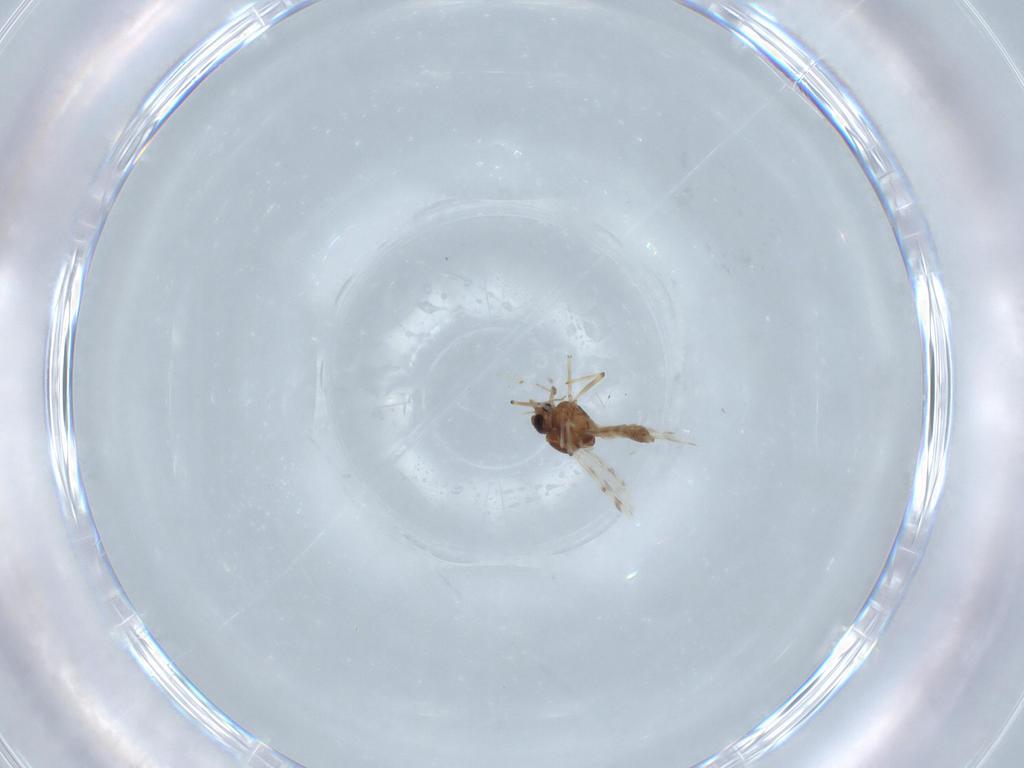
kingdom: Animalia
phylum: Arthropoda
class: Insecta
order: Diptera
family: Scatopsidae
